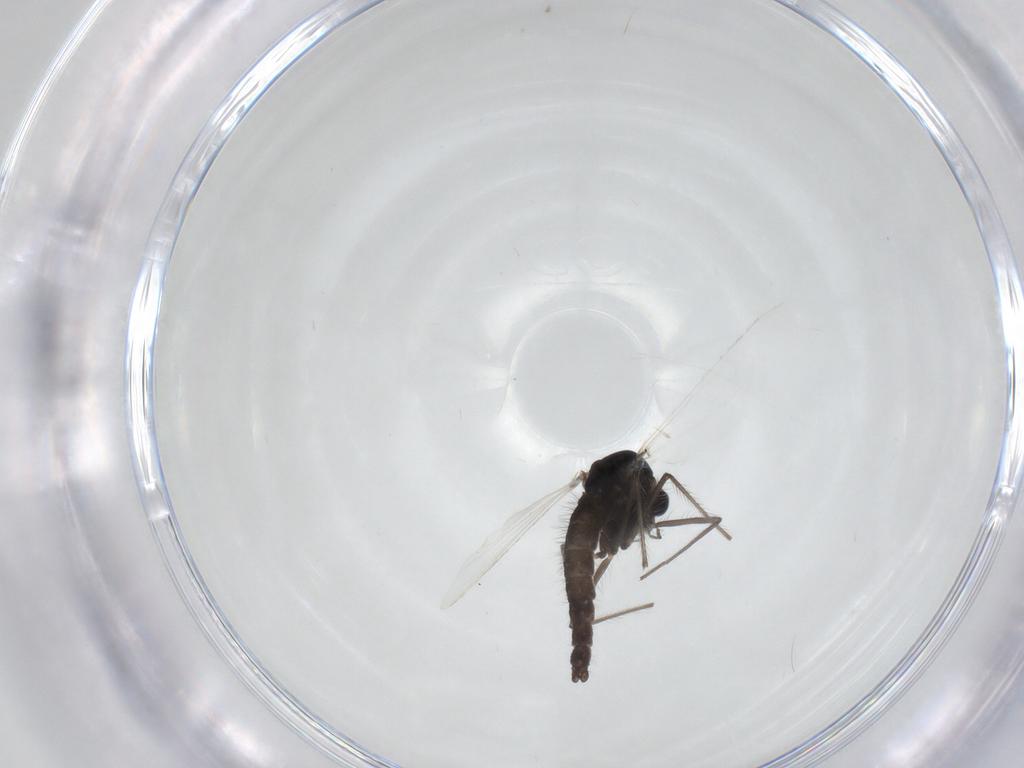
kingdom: Animalia
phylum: Arthropoda
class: Insecta
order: Diptera
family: Chironomidae
